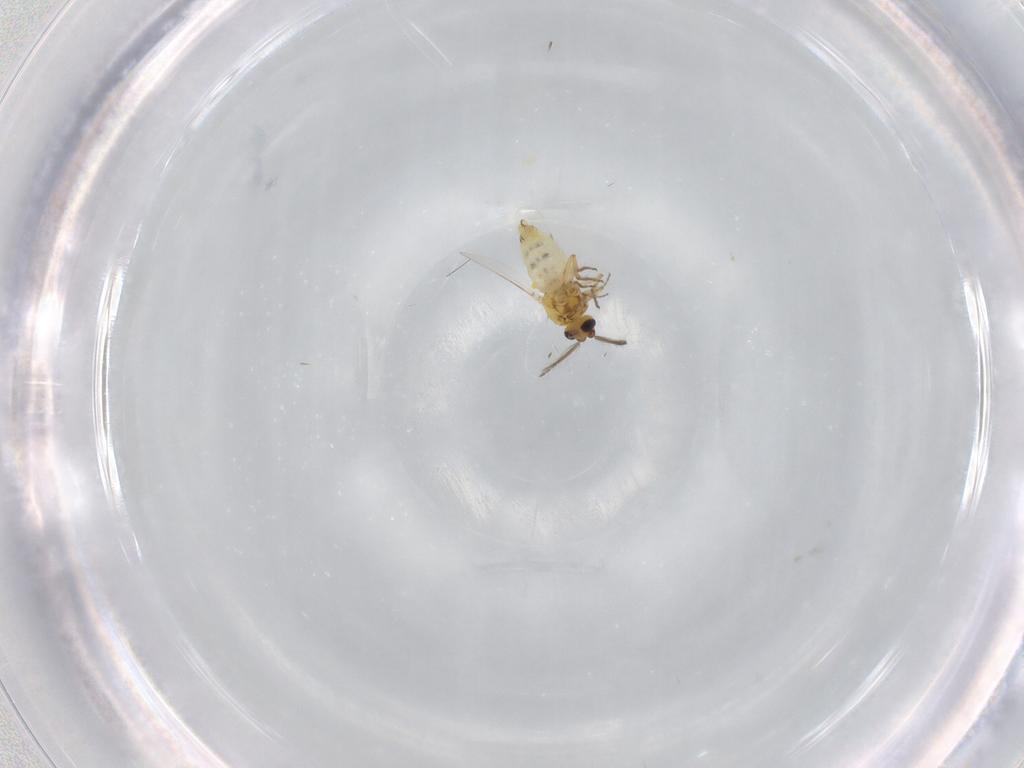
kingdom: Animalia
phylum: Arthropoda
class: Insecta
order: Diptera
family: Ceratopogonidae
